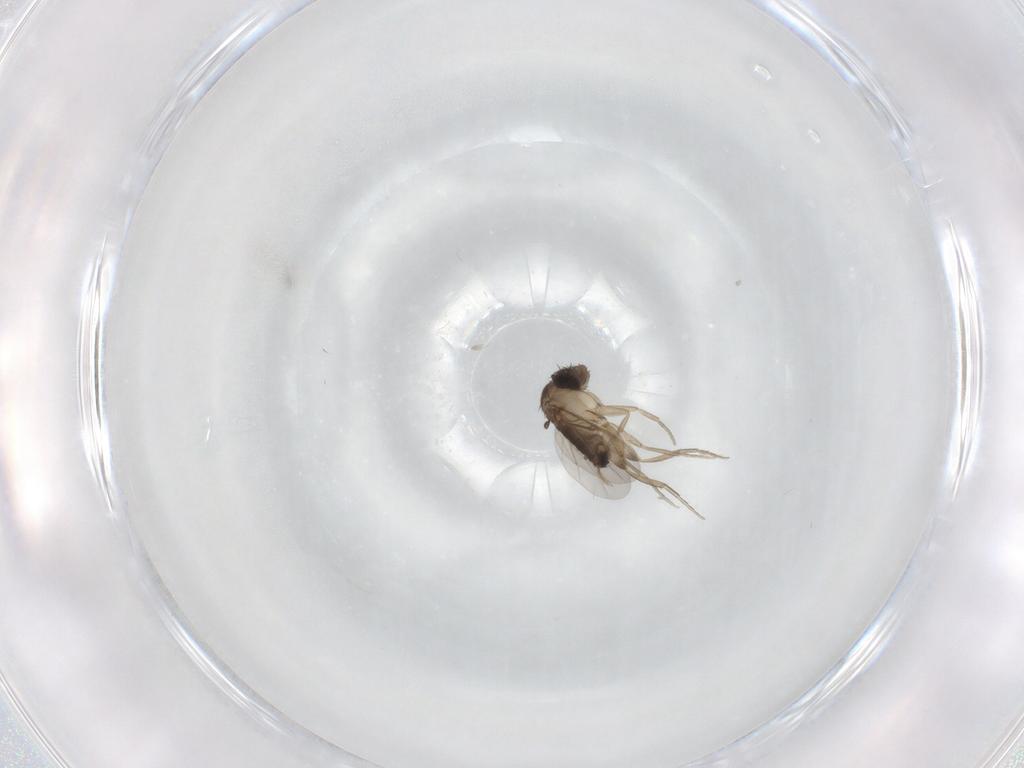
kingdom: Animalia
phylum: Arthropoda
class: Insecta
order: Diptera
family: Phoridae
